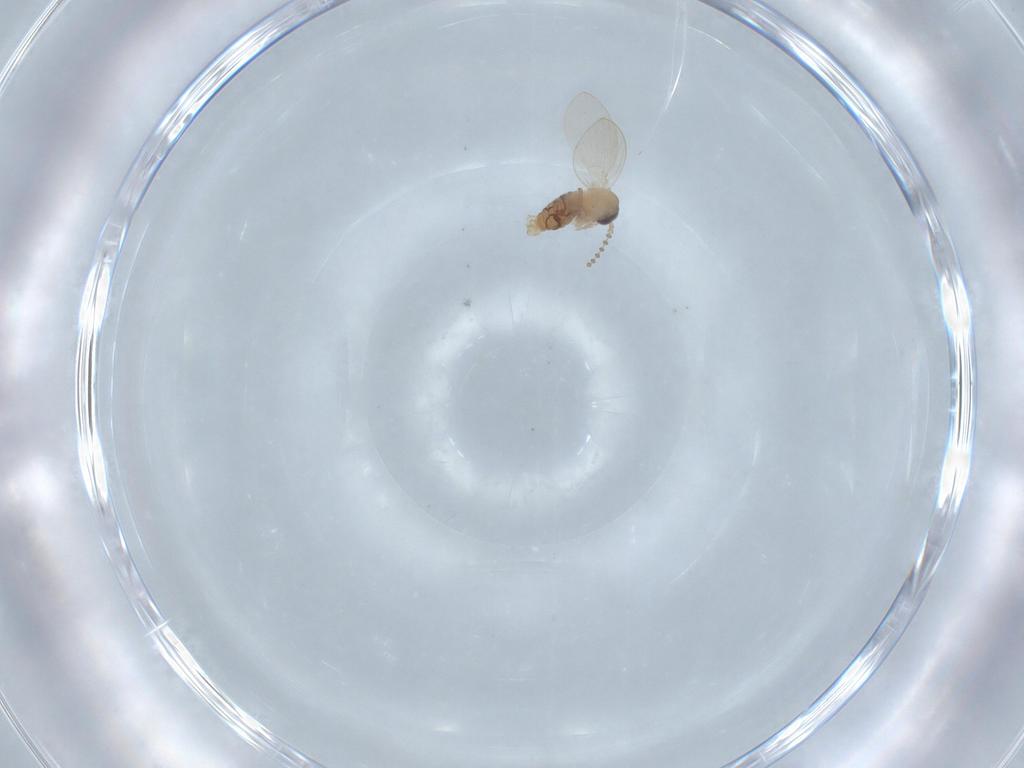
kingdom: Animalia
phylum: Arthropoda
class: Insecta
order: Diptera
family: Psychodidae
